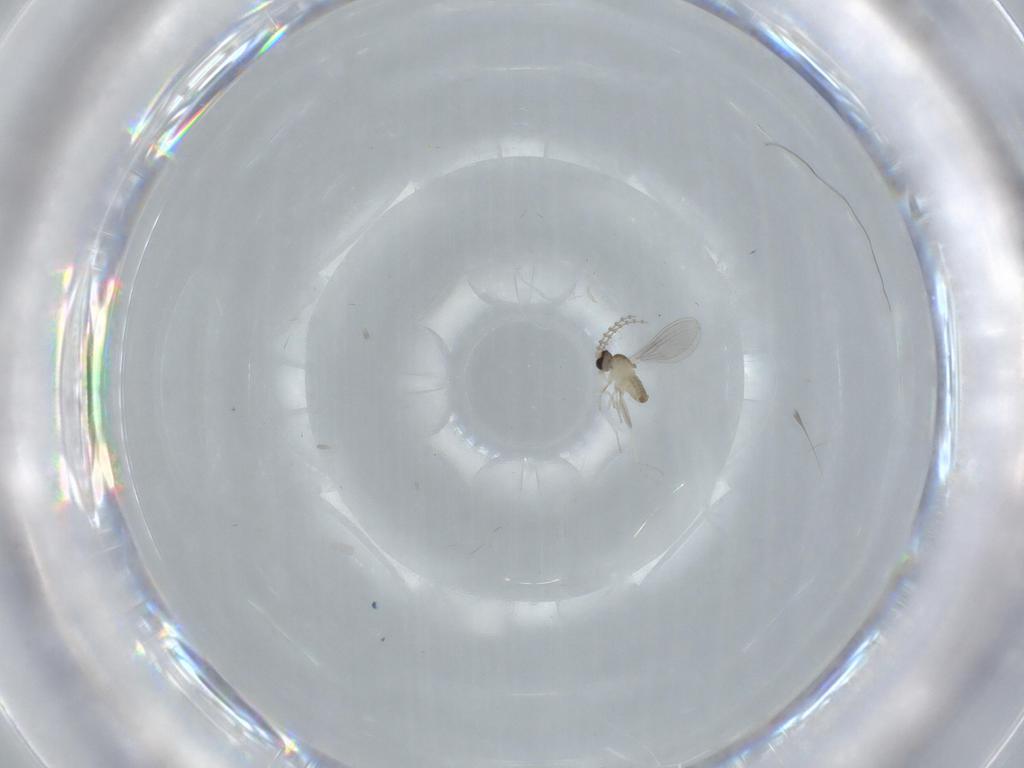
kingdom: Animalia
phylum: Arthropoda
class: Insecta
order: Diptera
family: Cecidomyiidae
